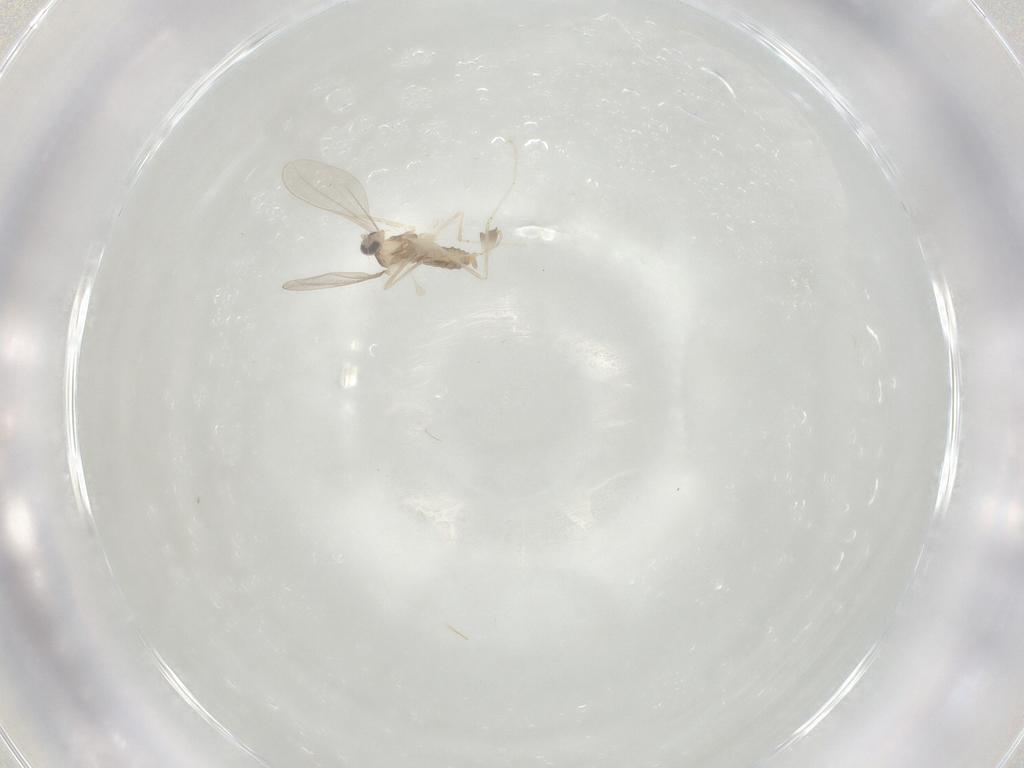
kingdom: Animalia
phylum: Arthropoda
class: Insecta
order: Diptera
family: Cecidomyiidae
